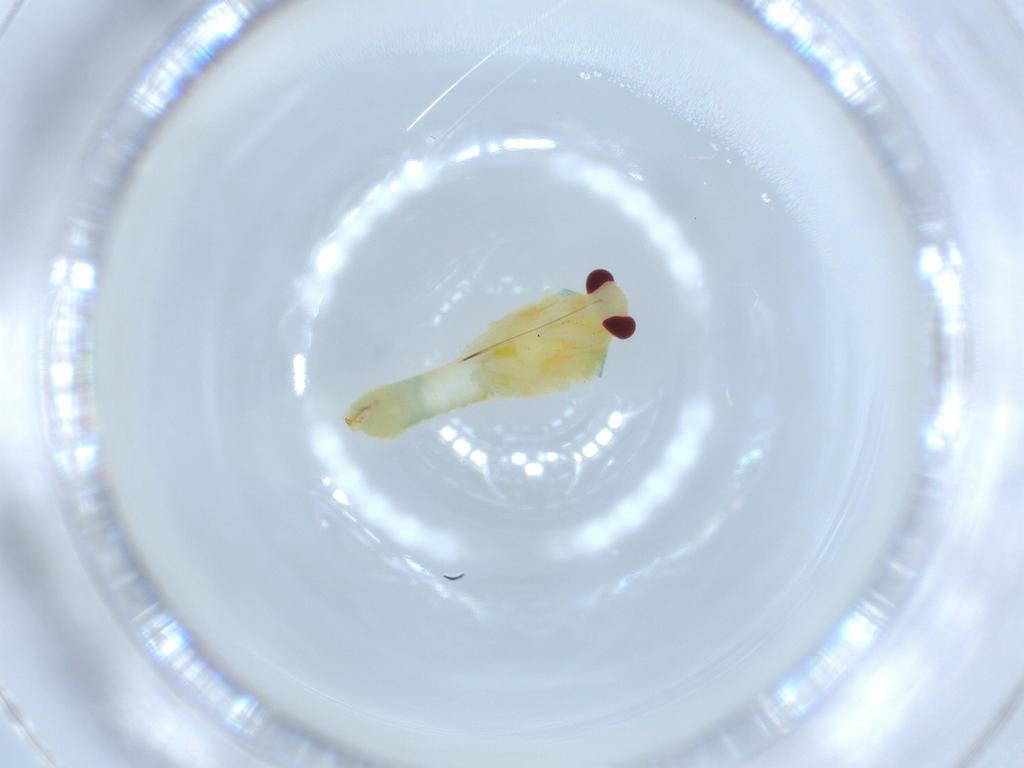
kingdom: Animalia
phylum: Arthropoda
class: Insecta
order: Hemiptera
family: Miridae
